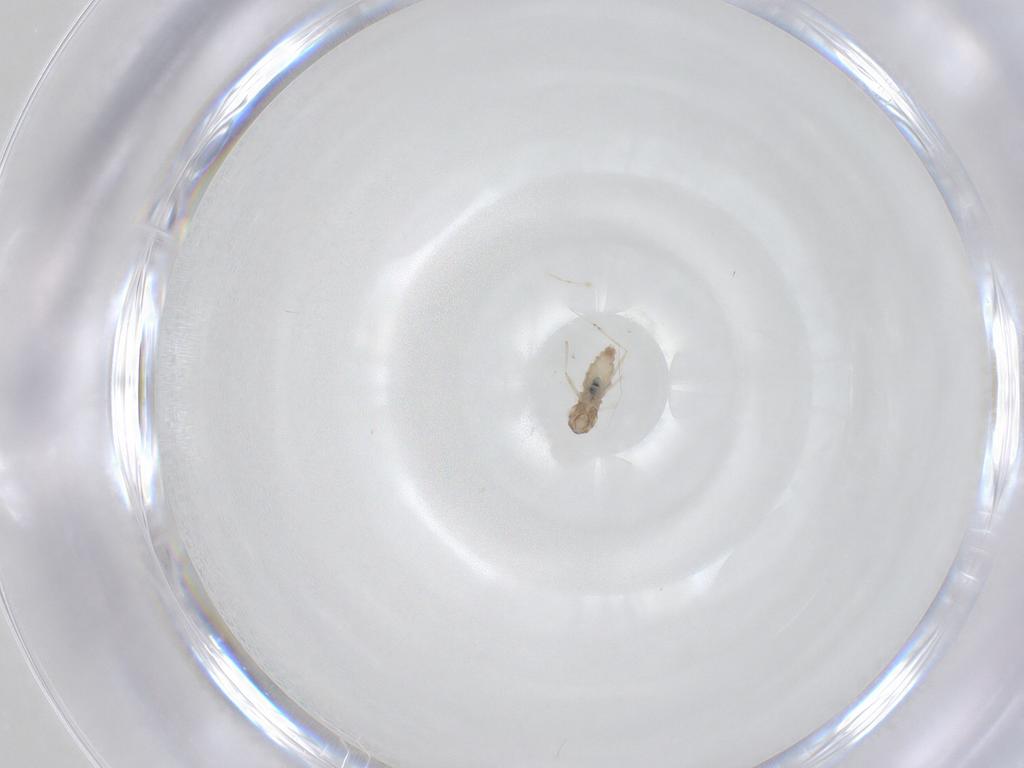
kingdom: Animalia
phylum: Arthropoda
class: Insecta
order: Diptera
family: Cecidomyiidae
